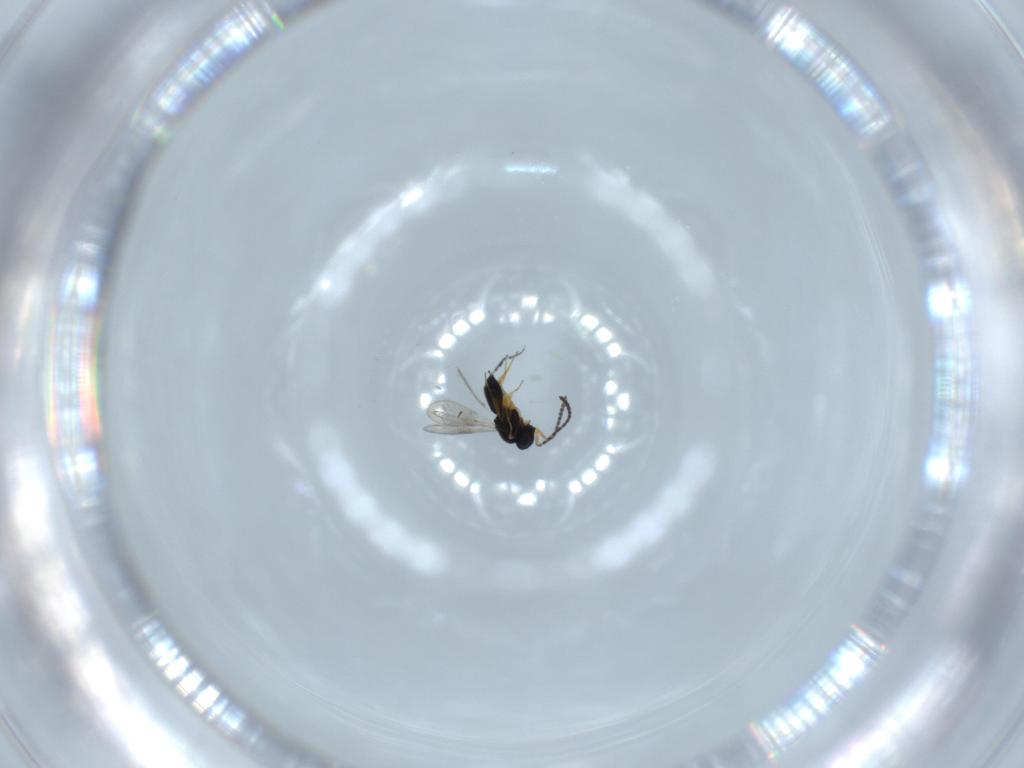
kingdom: Animalia
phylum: Arthropoda
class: Insecta
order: Hymenoptera
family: Scelionidae
